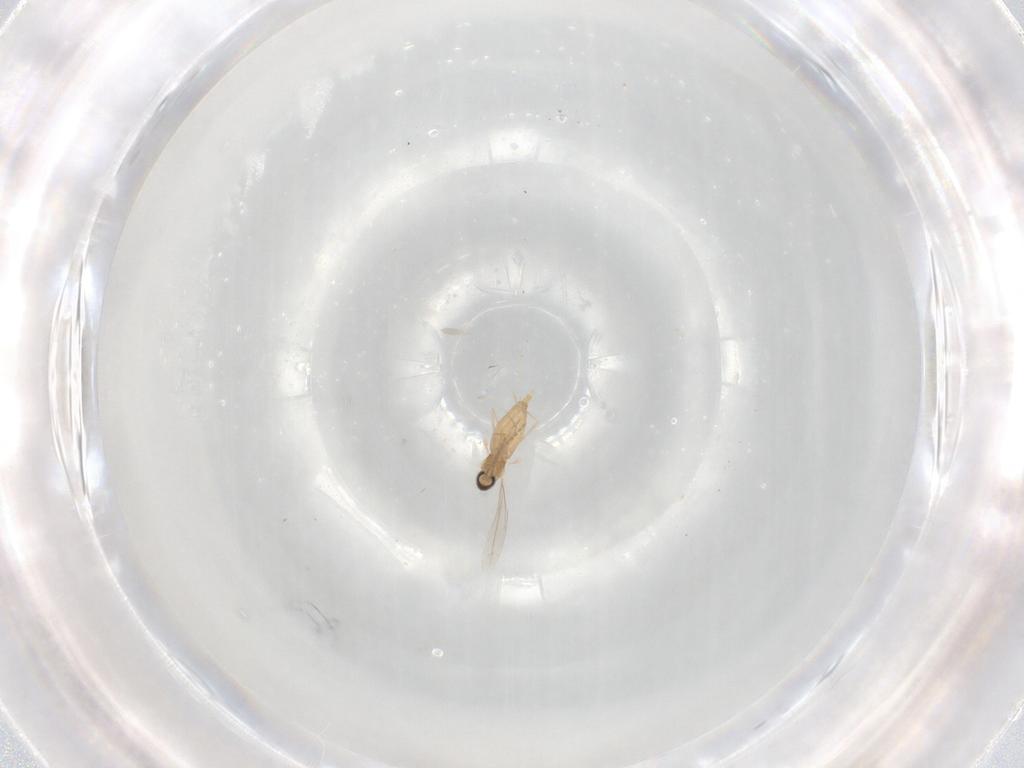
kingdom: Animalia
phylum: Arthropoda
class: Insecta
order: Diptera
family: Cecidomyiidae
